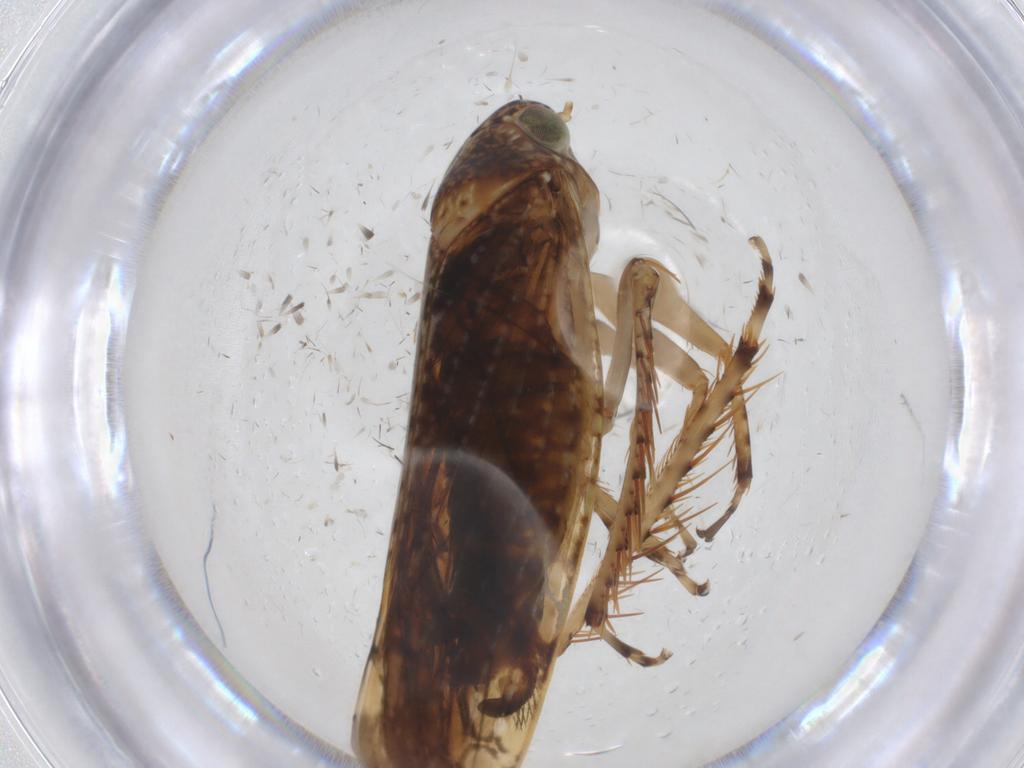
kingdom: Animalia
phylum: Arthropoda
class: Insecta
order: Hemiptera
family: Cicadellidae
